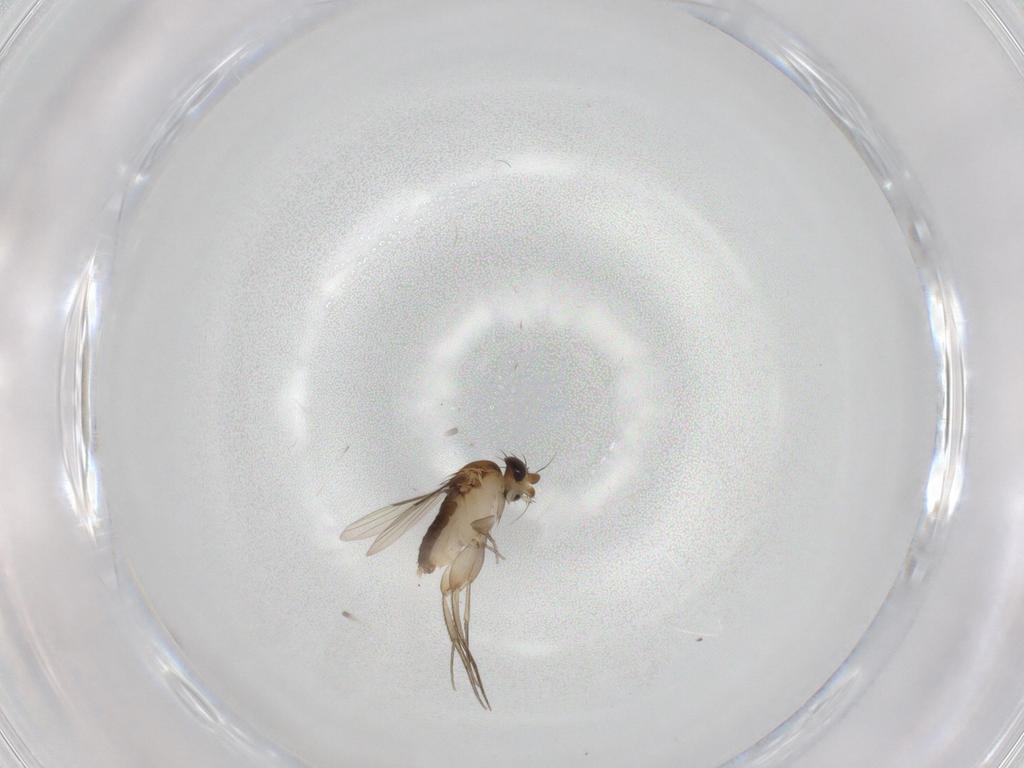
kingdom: Animalia
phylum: Arthropoda
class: Insecta
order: Diptera
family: Phoridae
